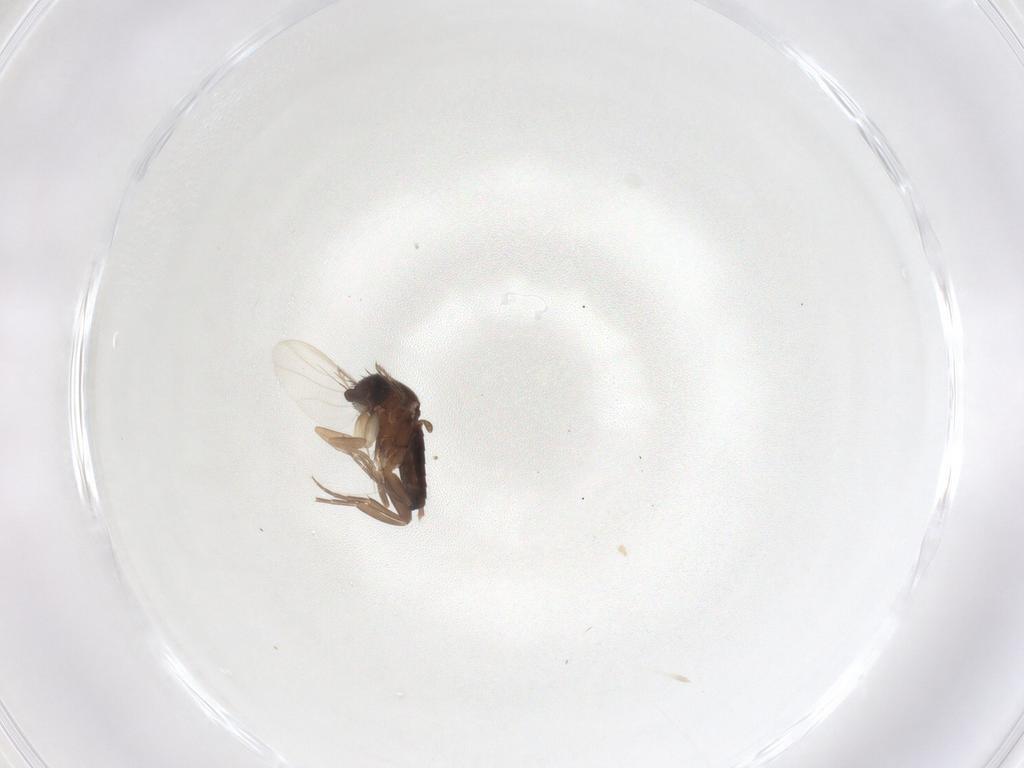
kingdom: Animalia
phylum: Arthropoda
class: Insecta
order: Diptera
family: Phoridae
